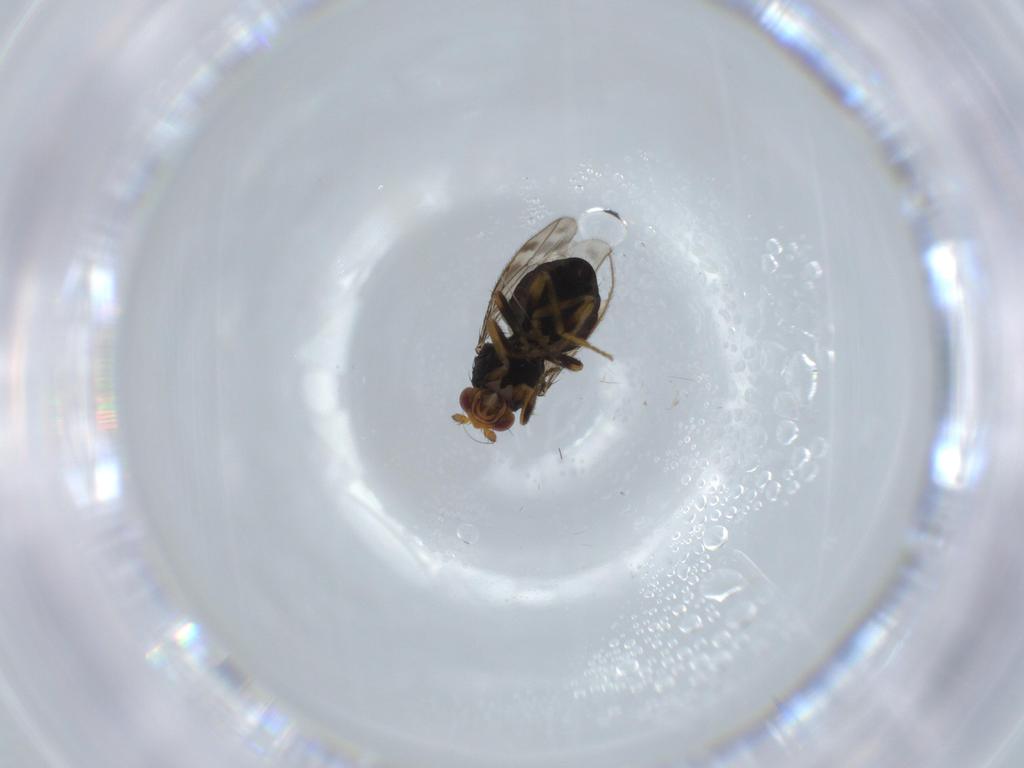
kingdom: Animalia
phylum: Arthropoda
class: Insecta
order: Diptera
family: Sphaeroceridae
